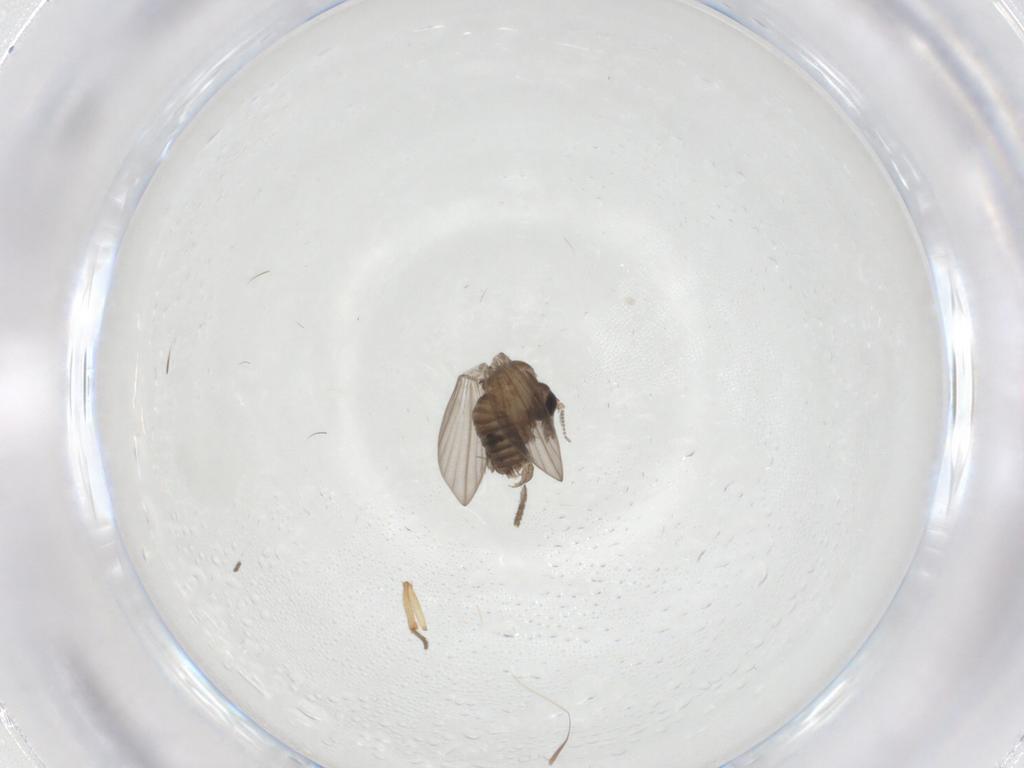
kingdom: Animalia
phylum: Arthropoda
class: Insecta
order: Diptera
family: Psychodidae
